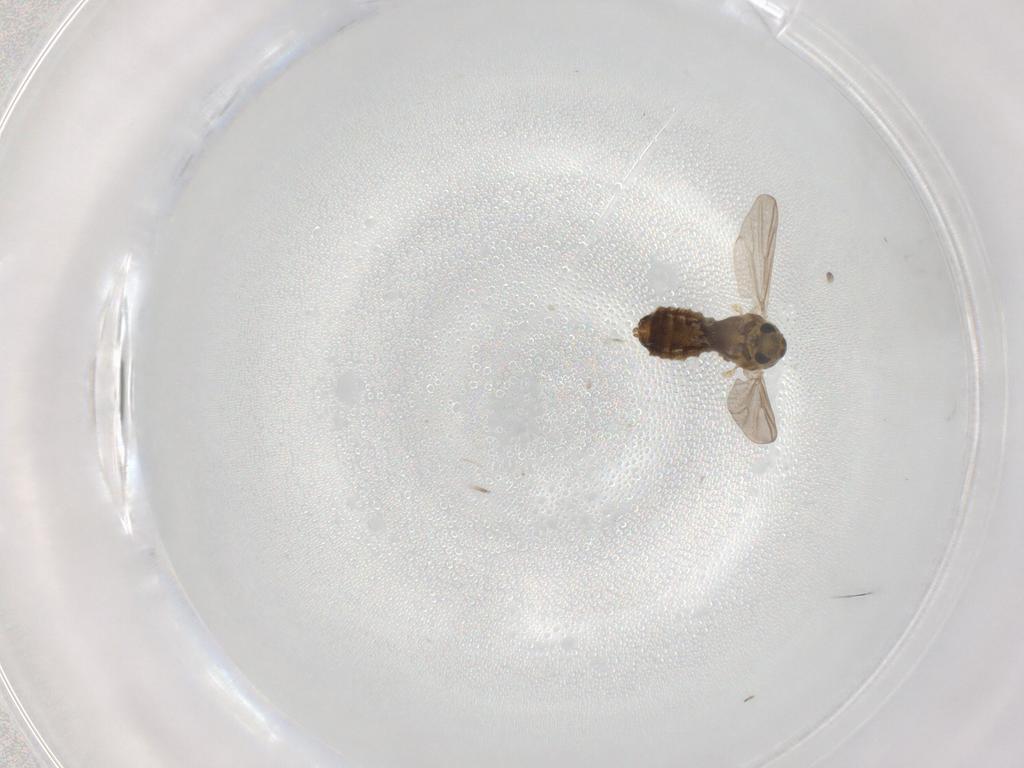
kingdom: Animalia
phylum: Arthropoda
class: Insecta
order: Diptera
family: Chironomidae
